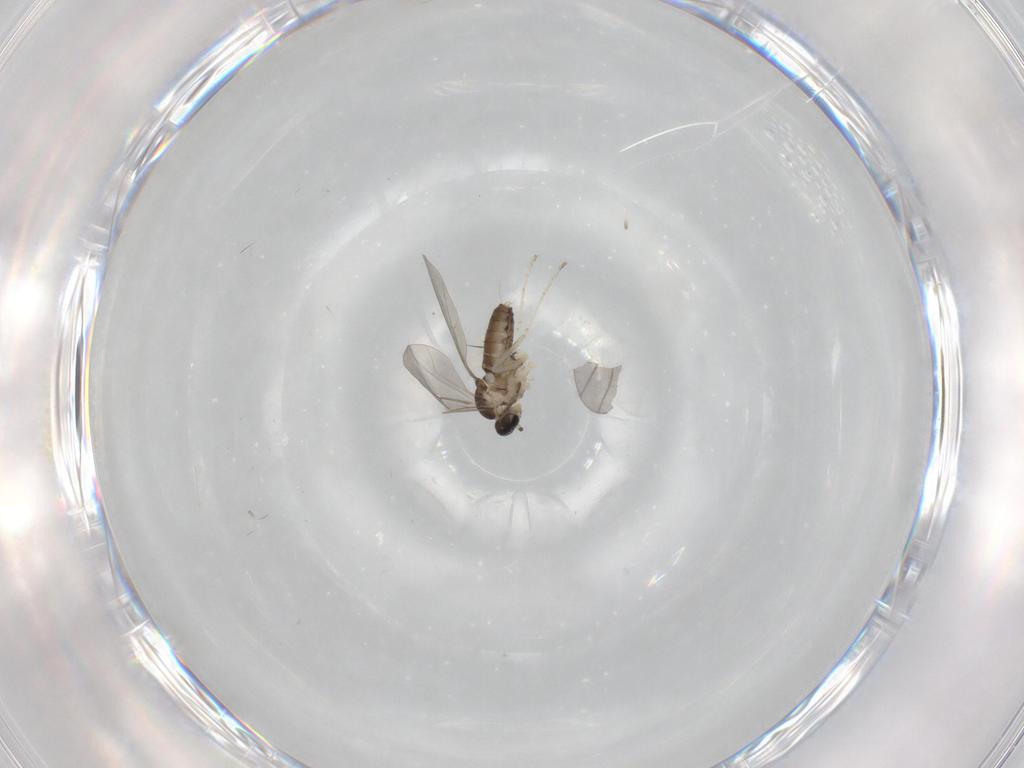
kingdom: Animalia
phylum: Arthropoda
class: Insecta
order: Diptera
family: Cecidomyiidae
